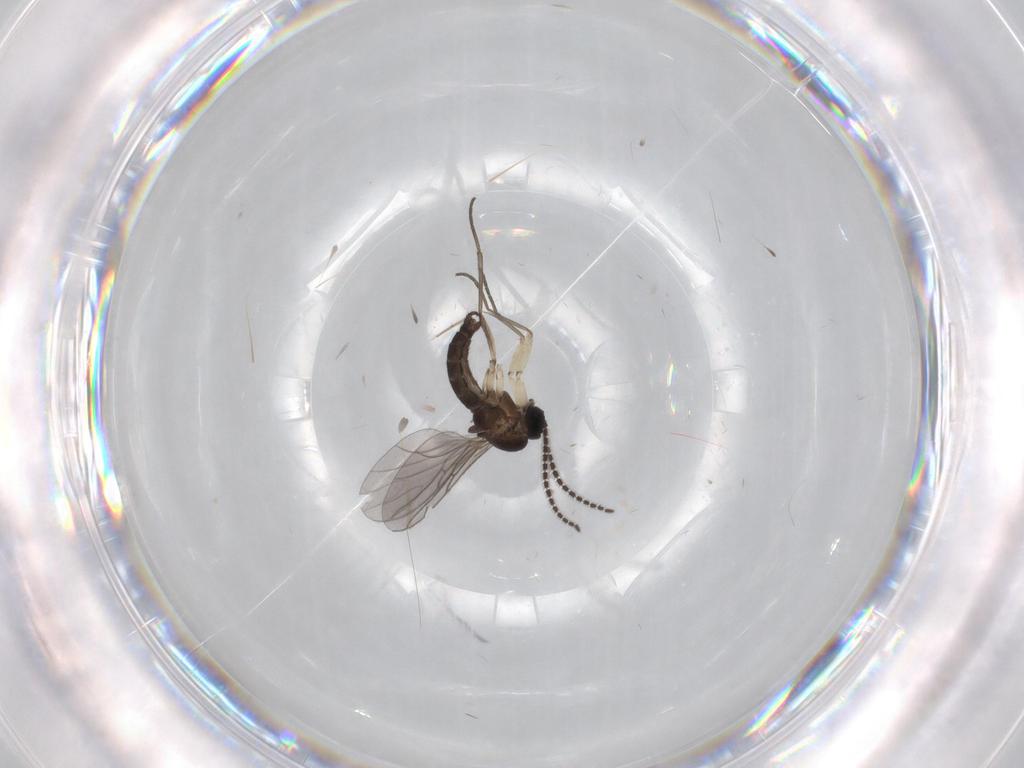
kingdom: Animalia
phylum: Arthropoda
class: Insecta
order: Diptera
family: Sciaridae
